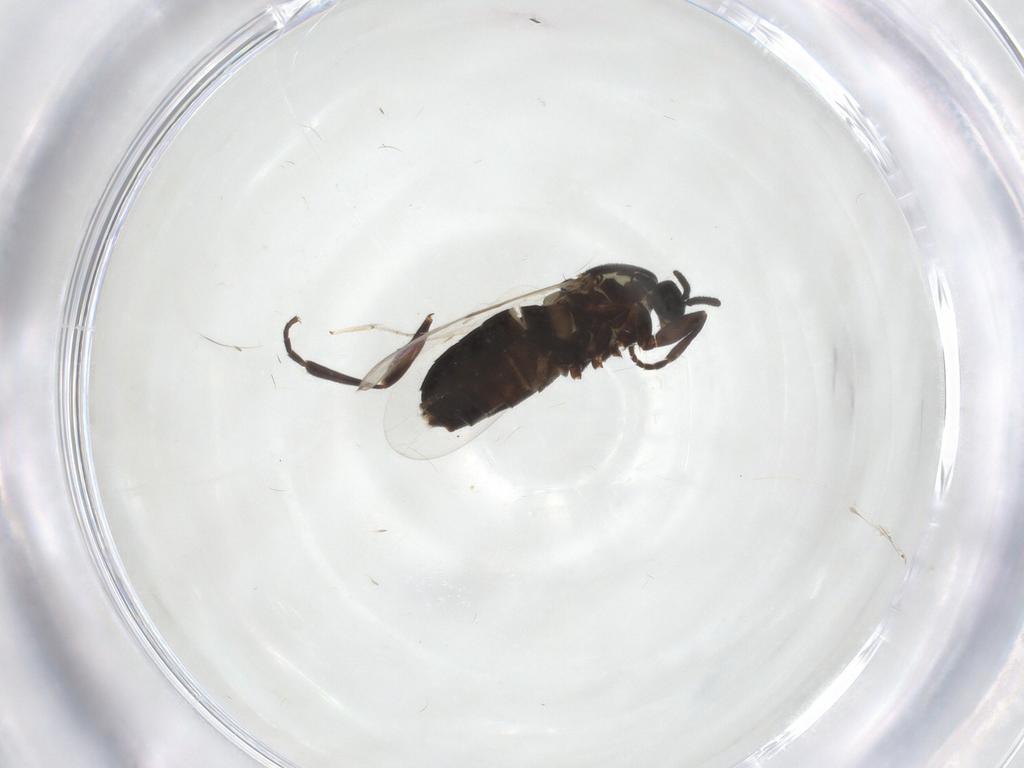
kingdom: Animalia
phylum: Arthropoda
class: Insecta
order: Diptera
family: Scatopsidae
